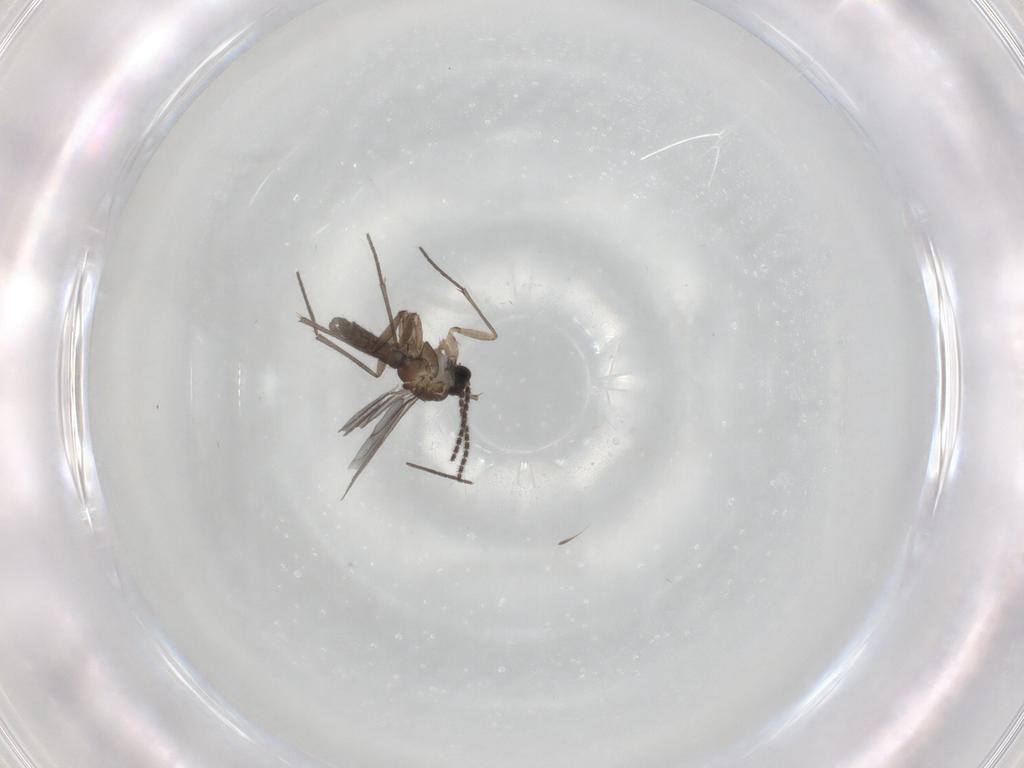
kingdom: Animalia
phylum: Arthropoda
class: Insecta
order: Diptera
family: Sciaridae
